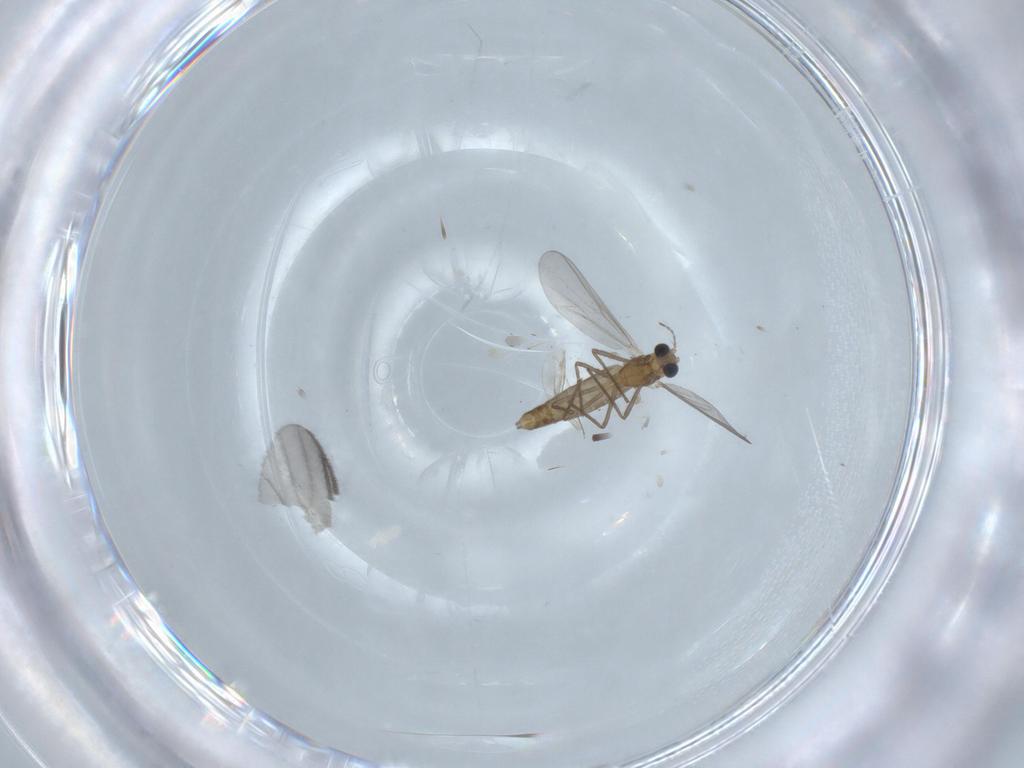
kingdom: Animalia
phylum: Arthropoda
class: Insecta
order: Diptera
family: Chironomidae
